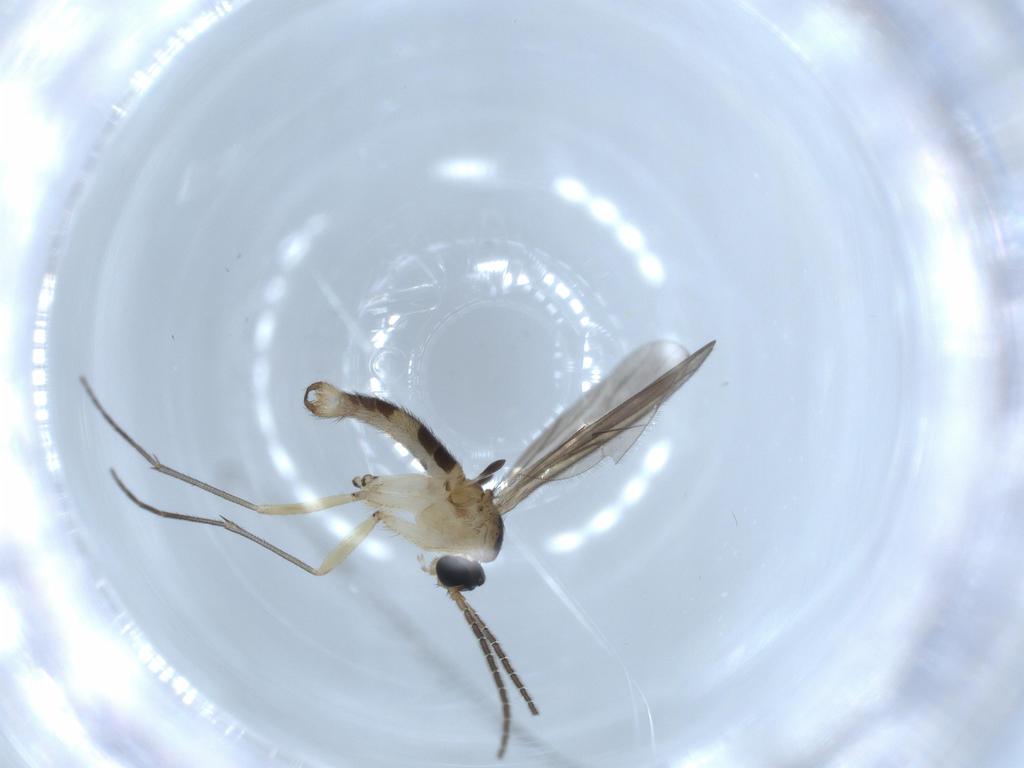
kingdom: Animalia
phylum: Arthropoda
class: Insecta
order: Diptera
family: Sciaridae
